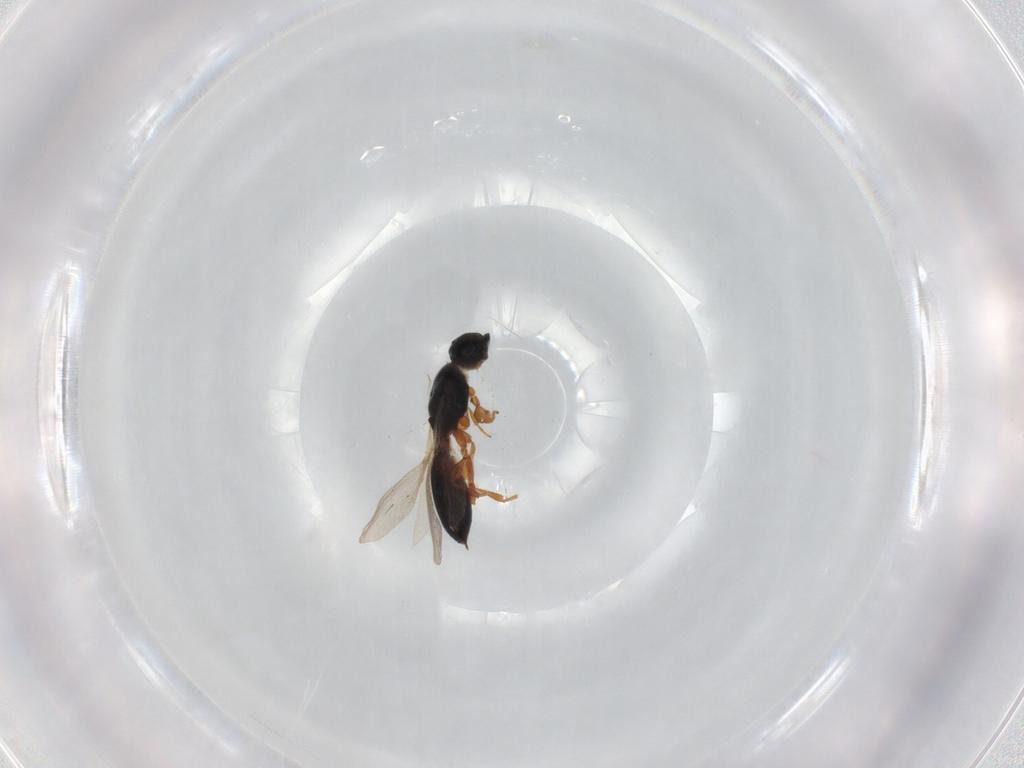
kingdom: Animalia
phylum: Arthropoda
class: Insecta
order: Hymenoptera
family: Diapriidae
